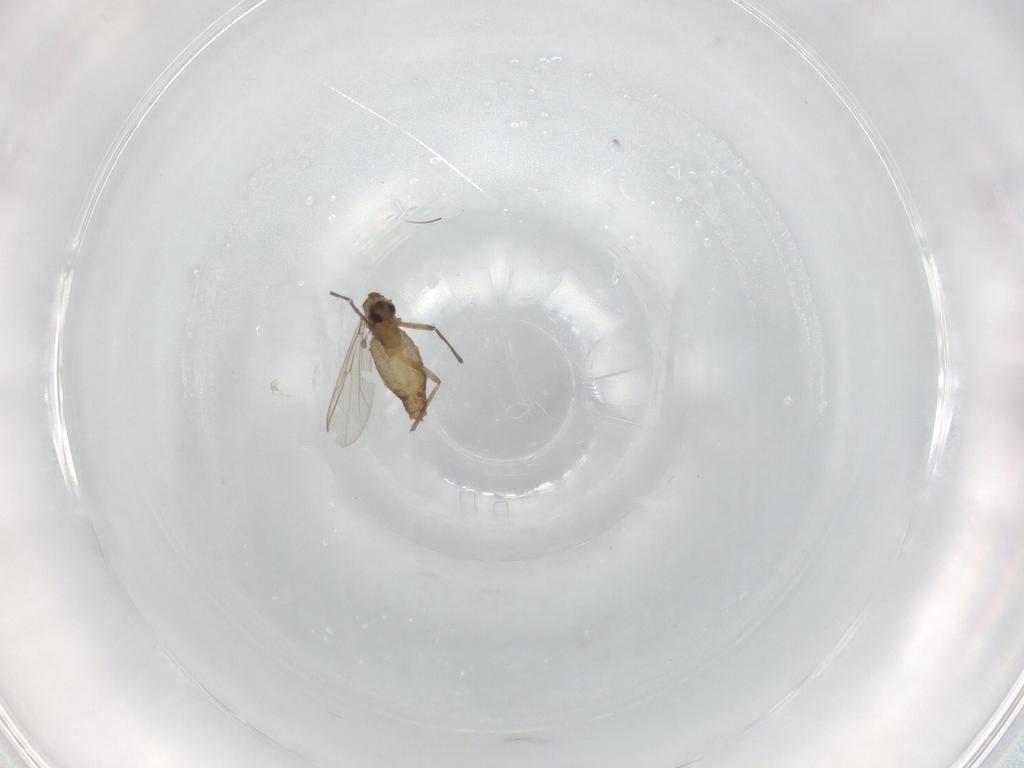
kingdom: Animalia
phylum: Arthropoda
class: Insecta
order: Diptera
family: Chironomidae
